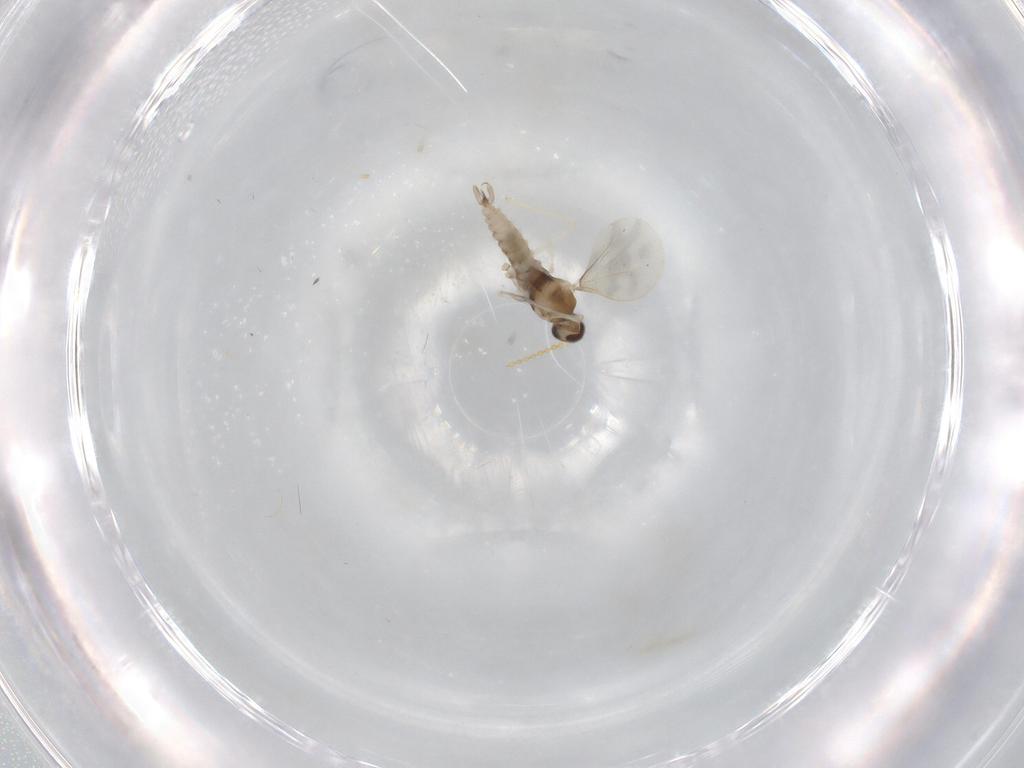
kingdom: Animalia
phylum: Arthropoda
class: Insecta
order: Diptera
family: Cecidomyiidae
